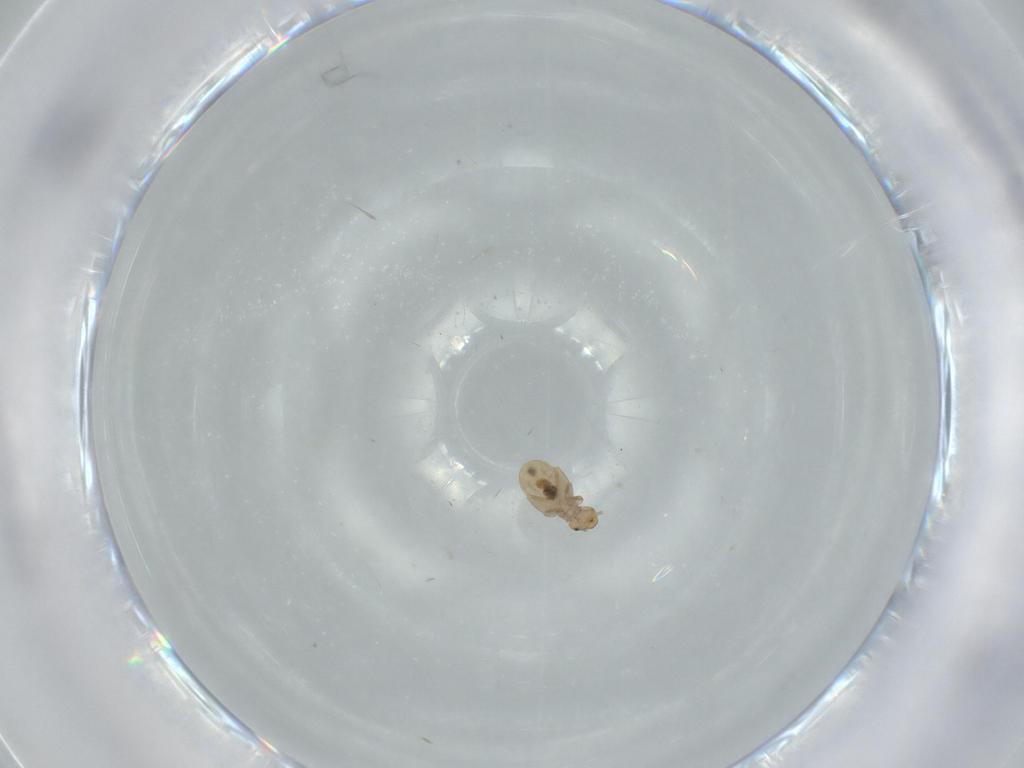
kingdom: Animalia
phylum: Arthropoda
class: Insecta
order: Psocodea
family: Liposcelididae
